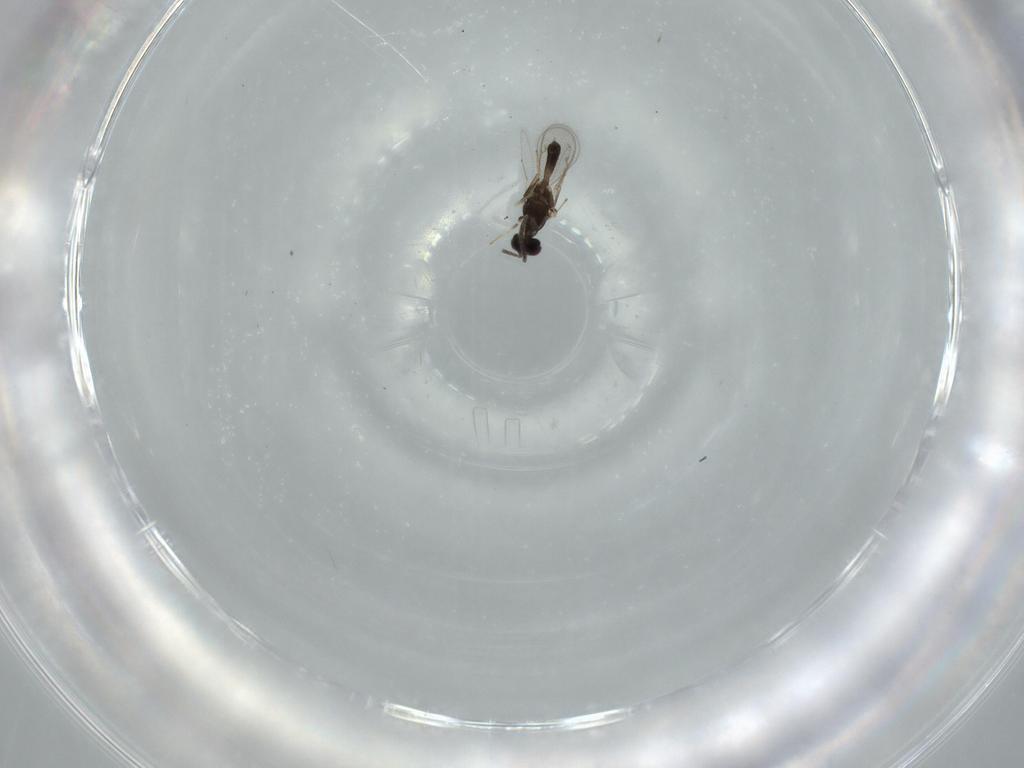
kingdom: Animalia
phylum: Arthropoda
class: Insecta
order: Hymenoptera
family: Eupelmidae
